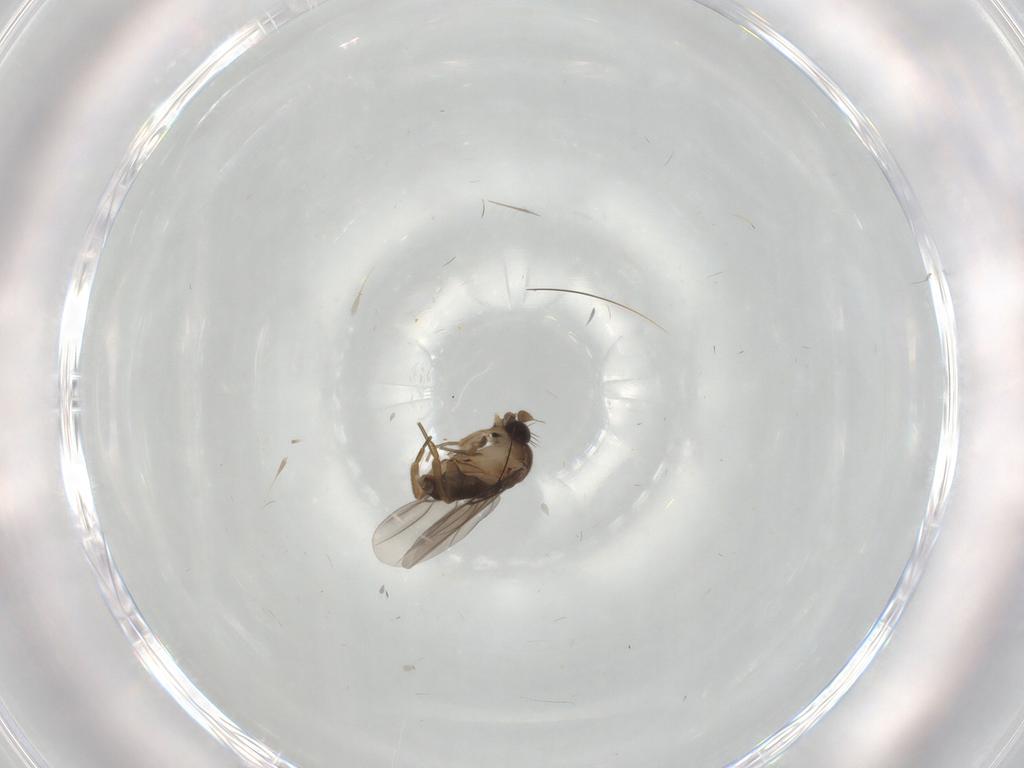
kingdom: Animalia
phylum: Arthropoda
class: Insecta
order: Diptera
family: Phoridae
